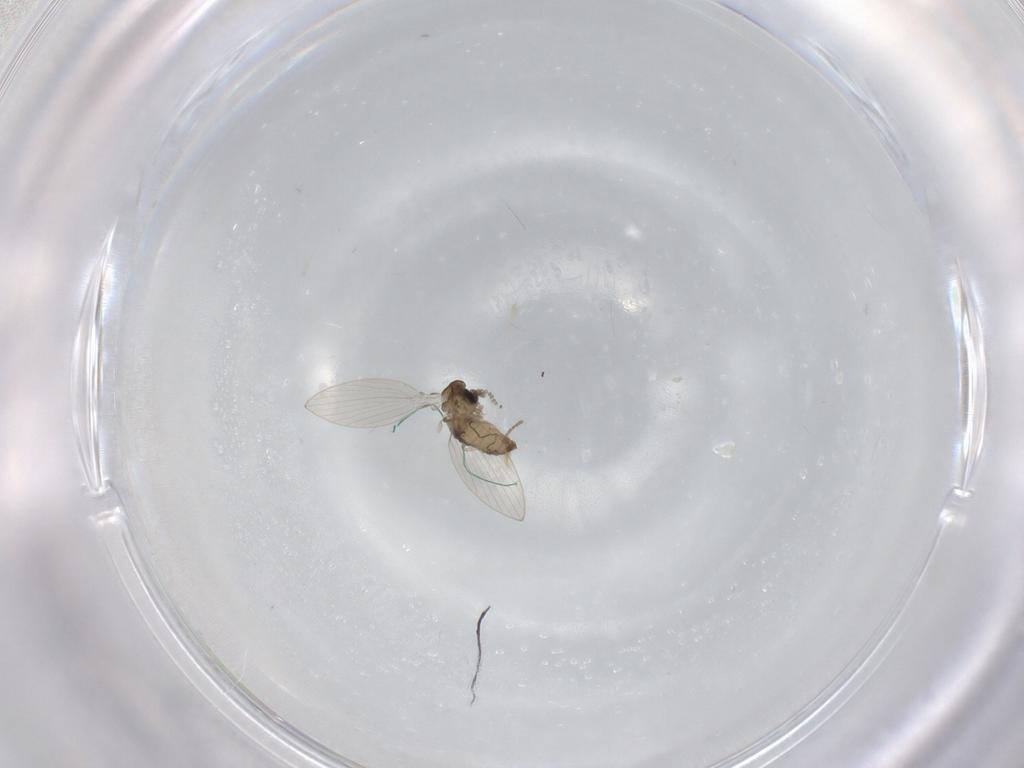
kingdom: Animalia
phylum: Arthropoda
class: Insecta
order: Diptera
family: Psychodidae
